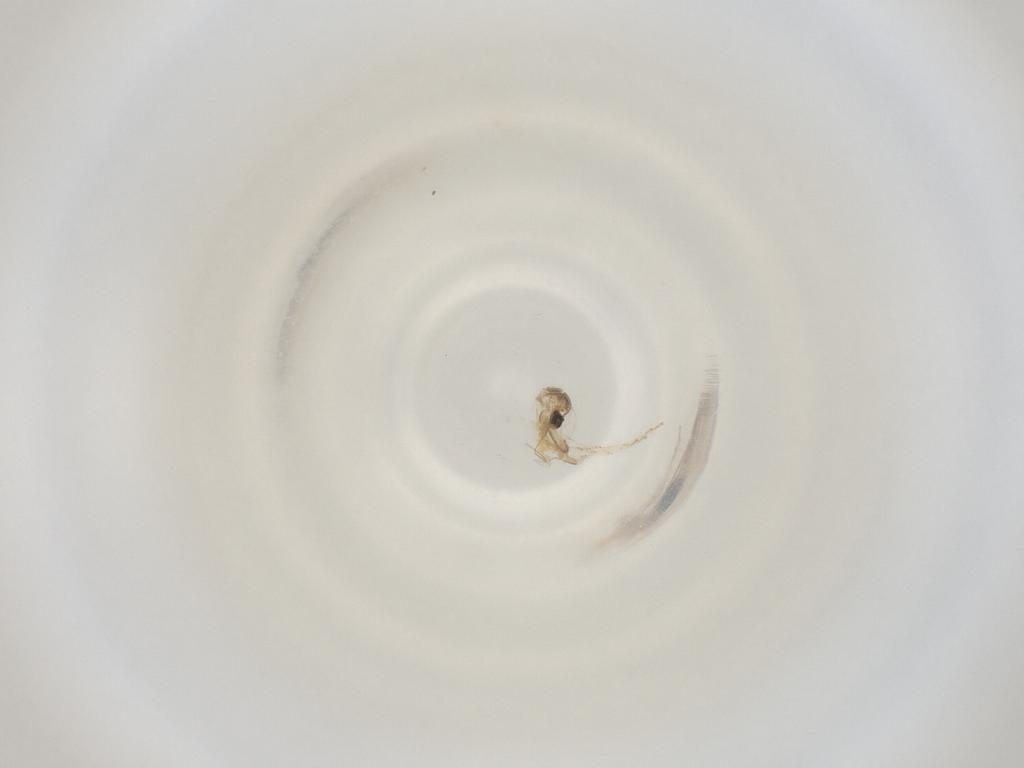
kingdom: Animalia
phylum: Arthropoda
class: Insecta
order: Diptera
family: Cecidomyiidae
